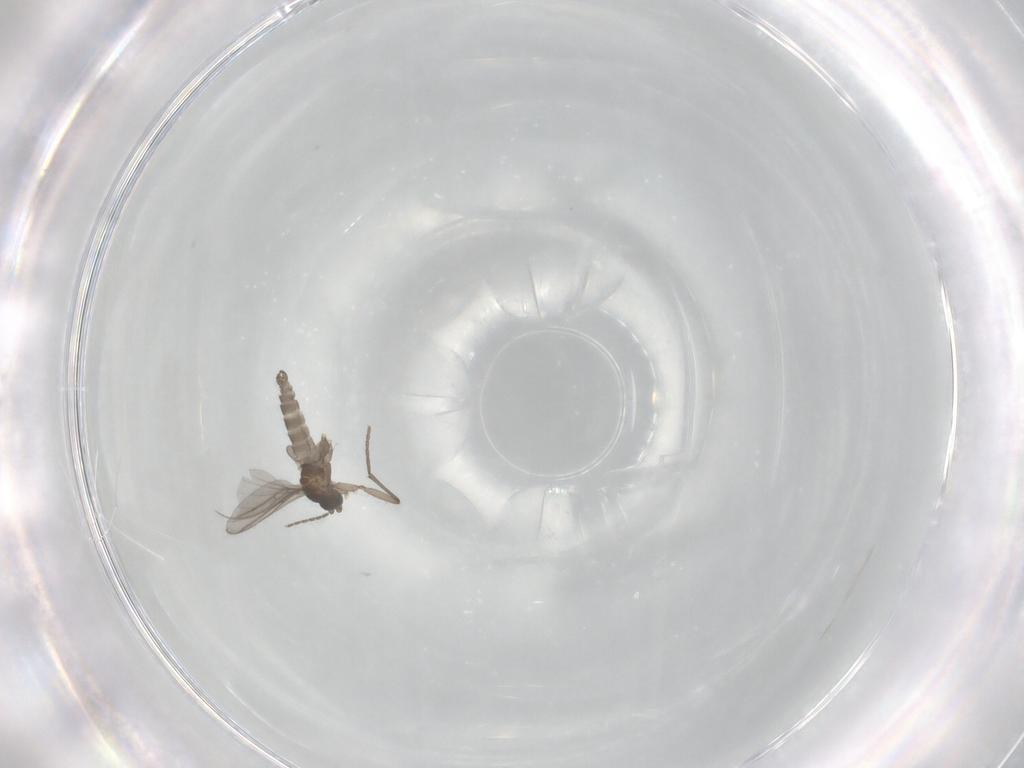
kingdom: Animalia
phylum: Arthropoda
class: Insecta
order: Diptera
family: Sciaridae
